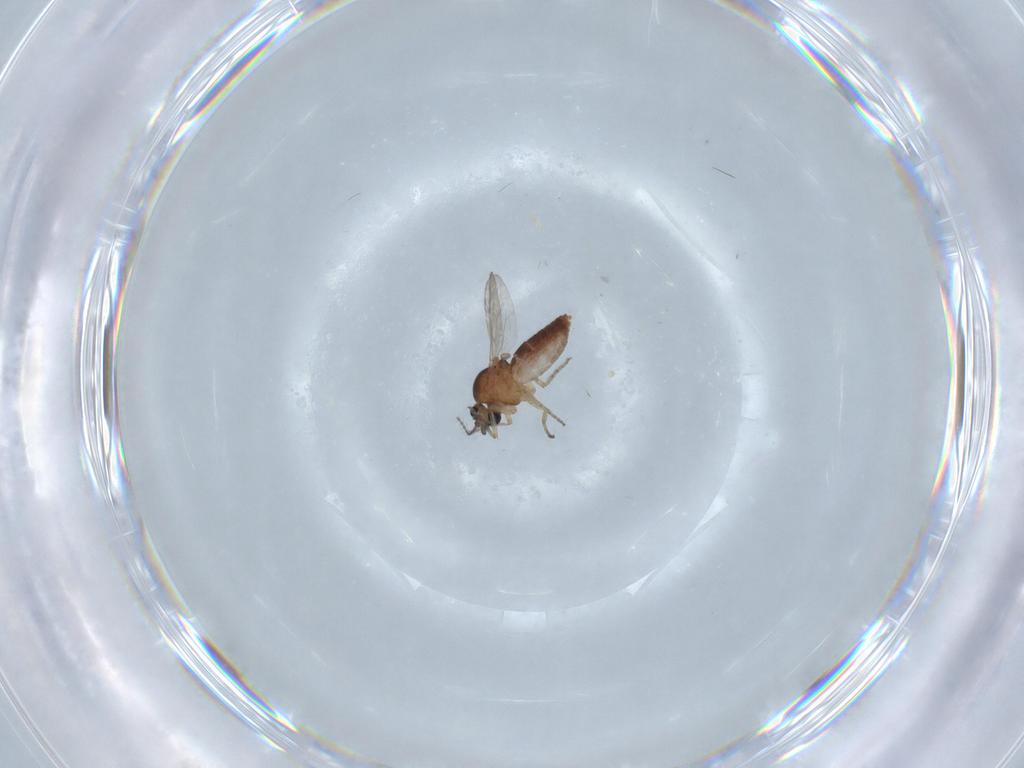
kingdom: Animalia
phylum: Arthropoda
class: Insecta
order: Diptera
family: Ceratopogonidae
